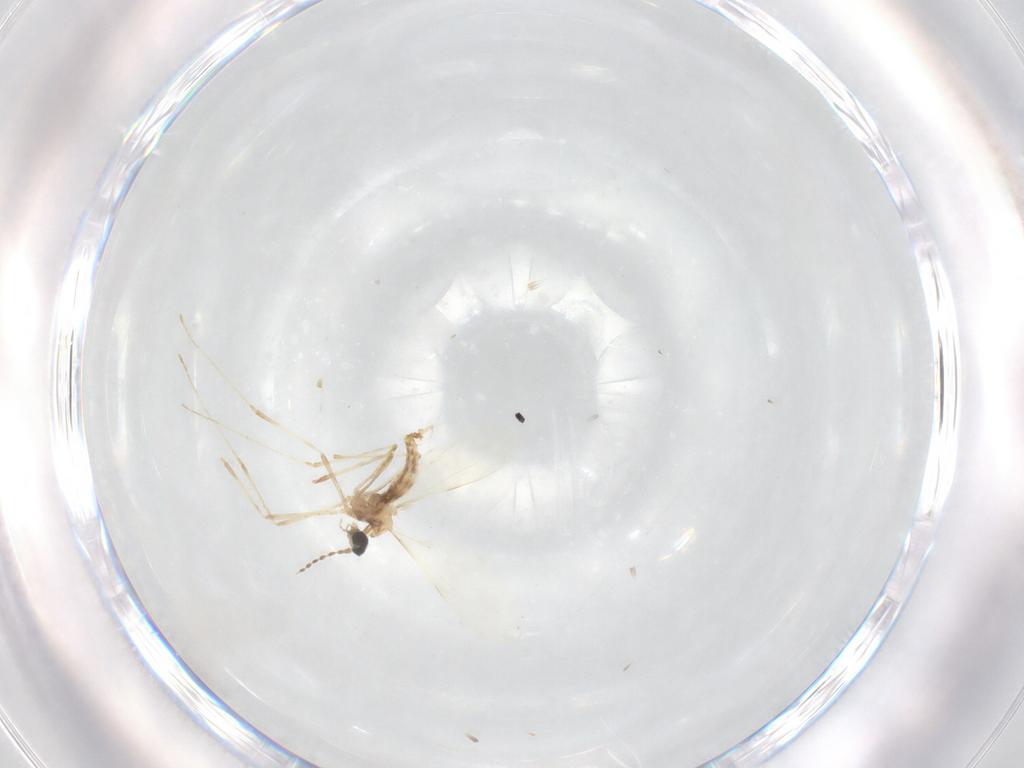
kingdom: Animalia
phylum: Arthropoda
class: Insecta
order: Diptera
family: Cecidomyiidae
